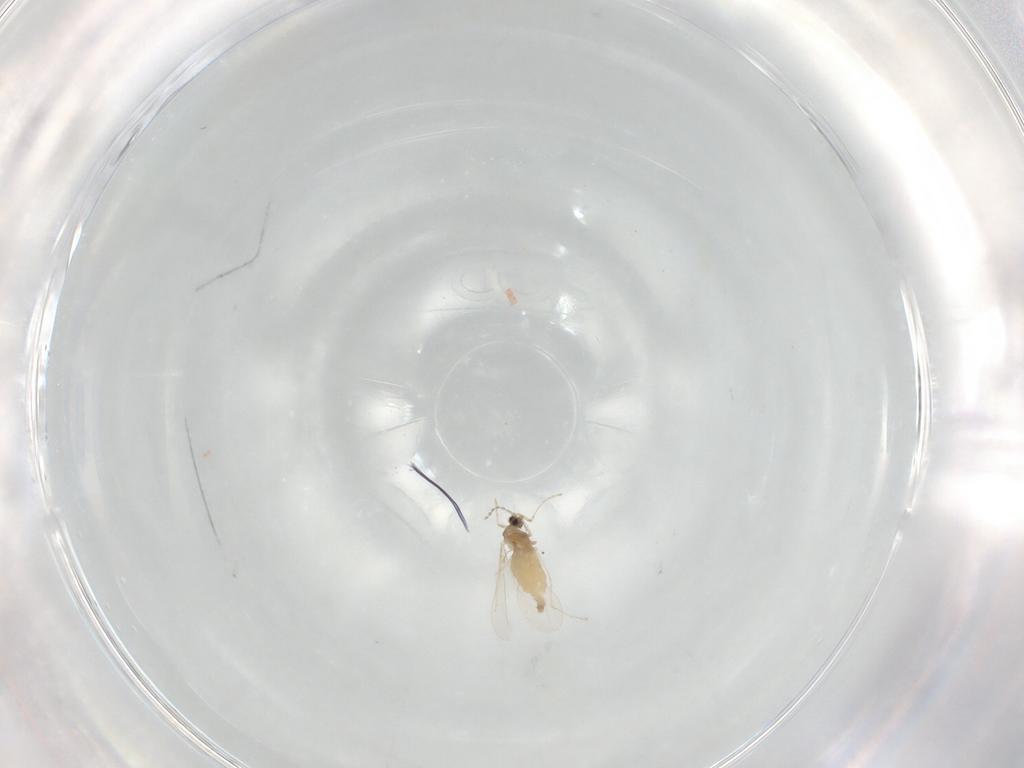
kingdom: Animalia
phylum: Arthropoda
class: Insecta
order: Diptera
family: Cecidomyiidae
